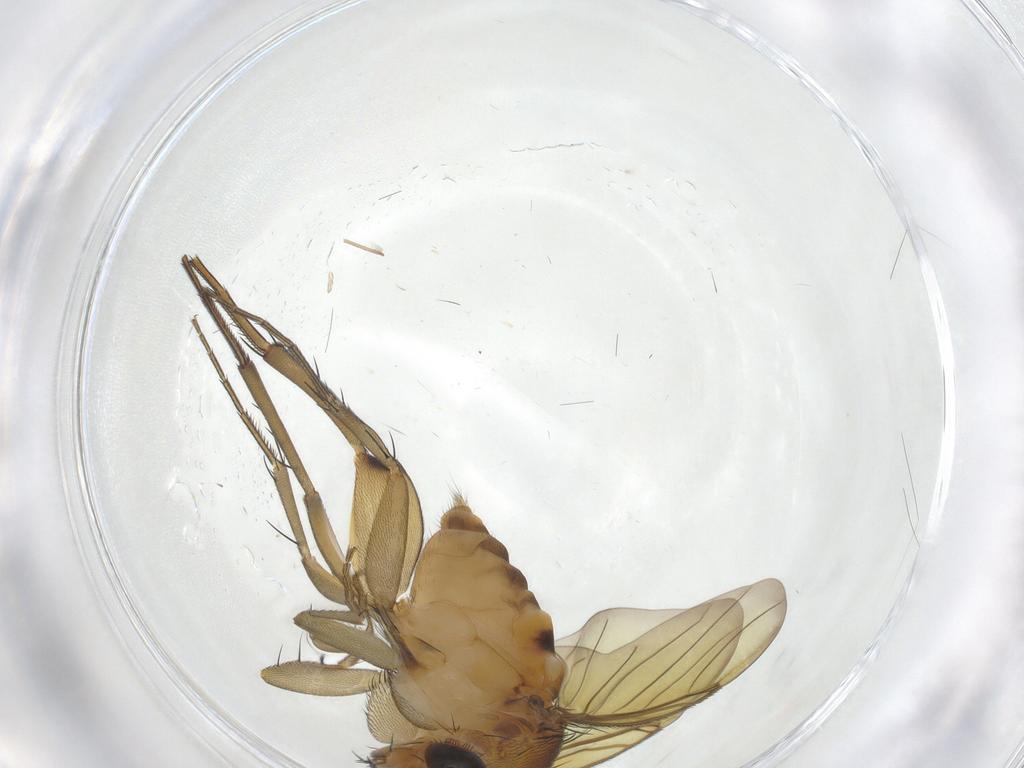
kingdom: Animalia
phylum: Arthropoda
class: Insecta
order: Diptera
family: Phoridae
